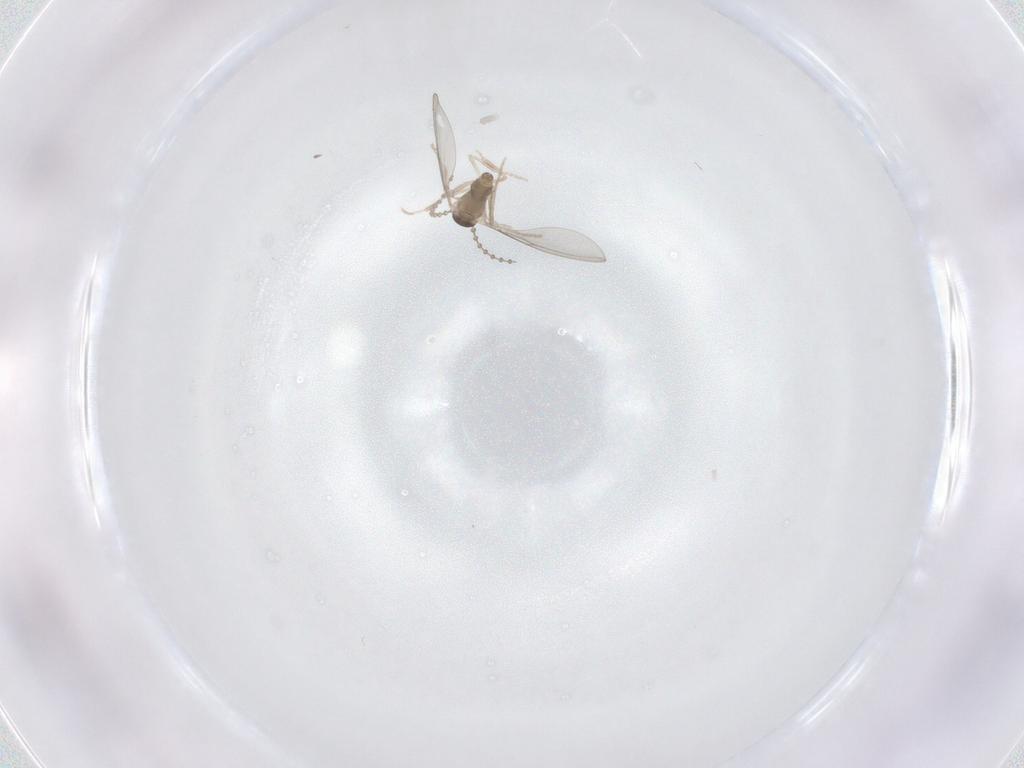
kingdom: Animalia
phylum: Arthropoda
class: Insecta
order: Diptera
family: Cecidomyiidae
